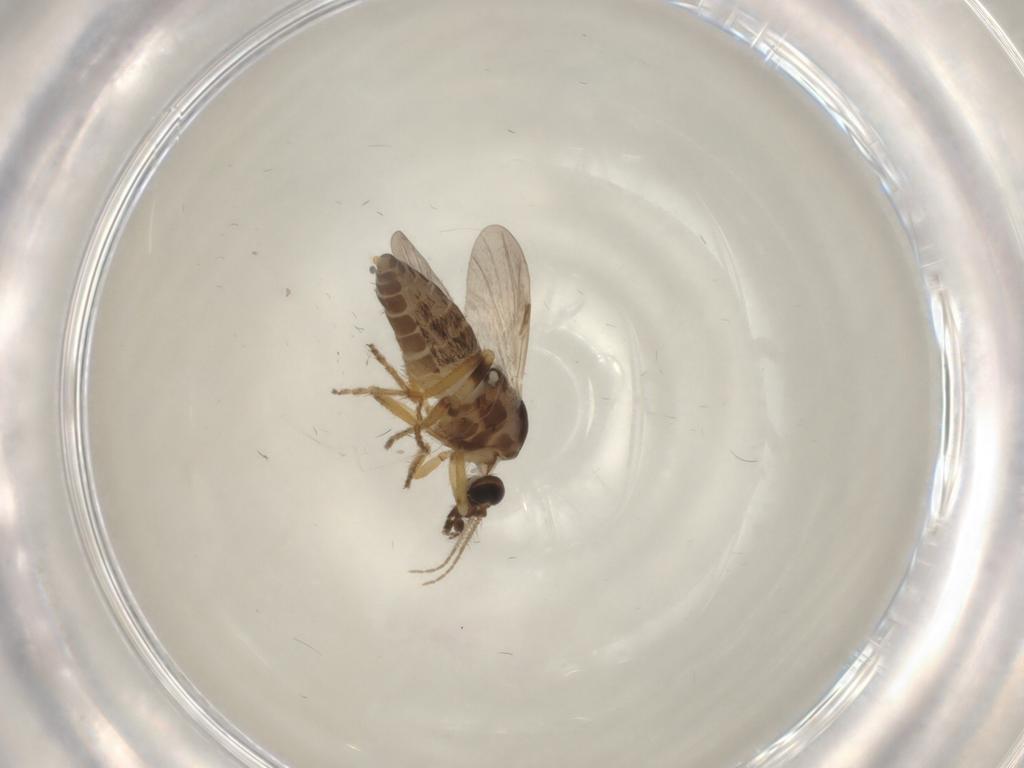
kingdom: Animalia
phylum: Arthropoda
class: Insecta
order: Diptera
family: Ceratopogonidae
